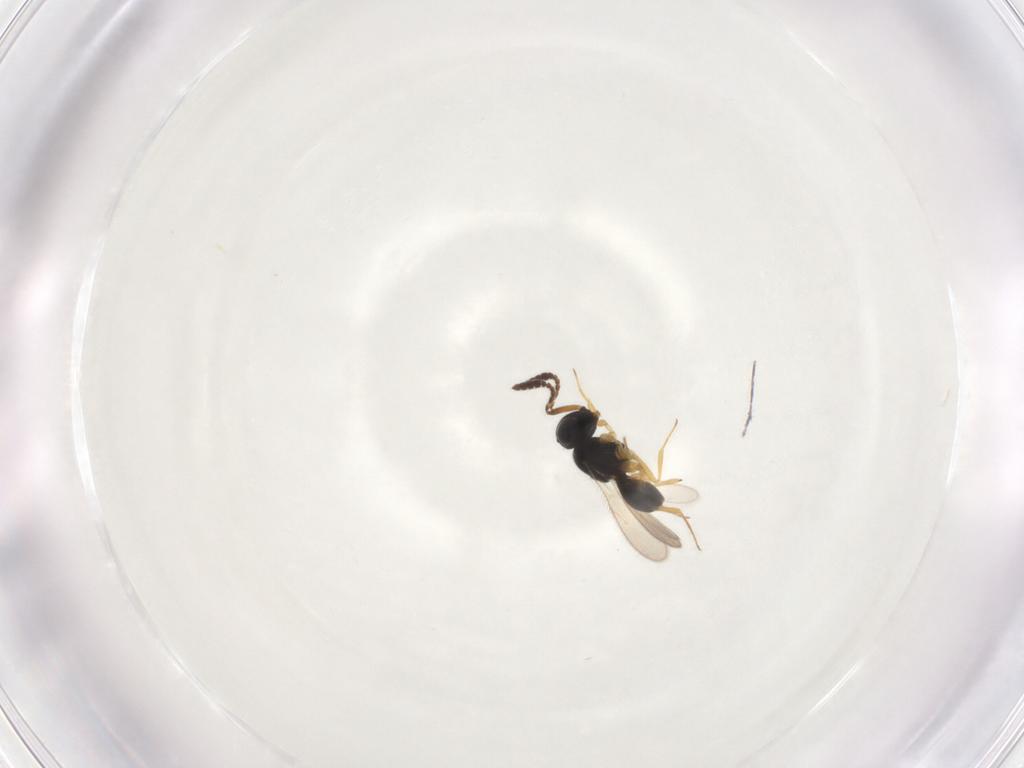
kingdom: Animalia
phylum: Arthropoda
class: Insecta
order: Hymenoptera
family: Scelionidae
